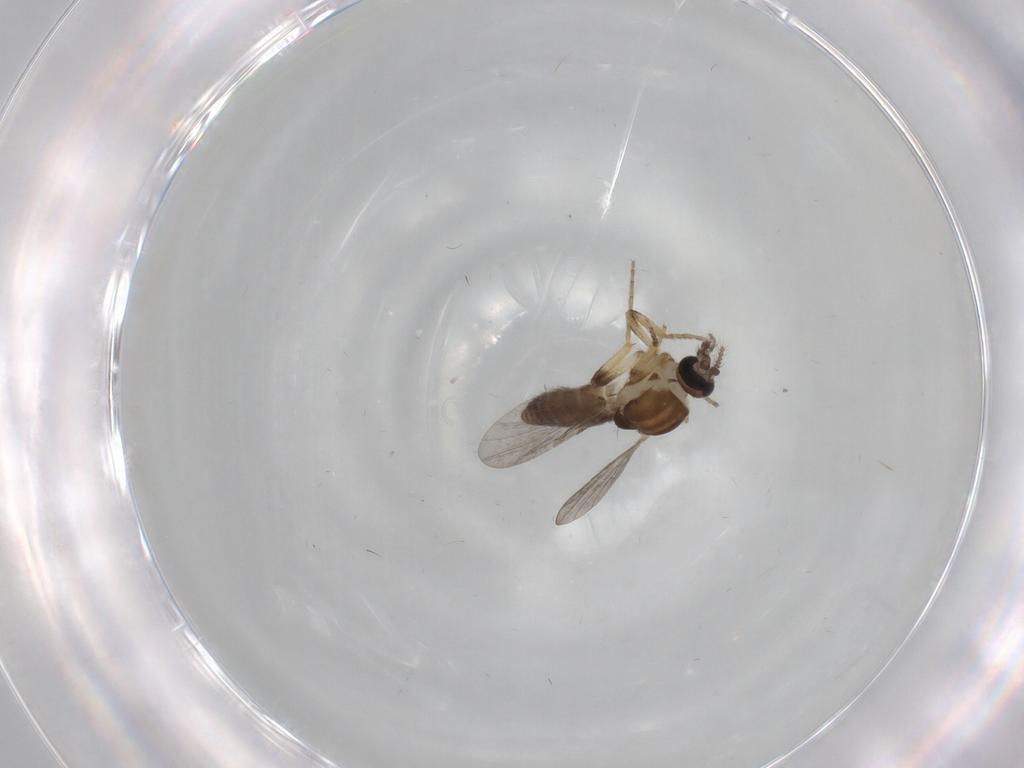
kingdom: Animalia
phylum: Arthropoda
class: Insecta
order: Diptera
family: Ceratopogonidae
